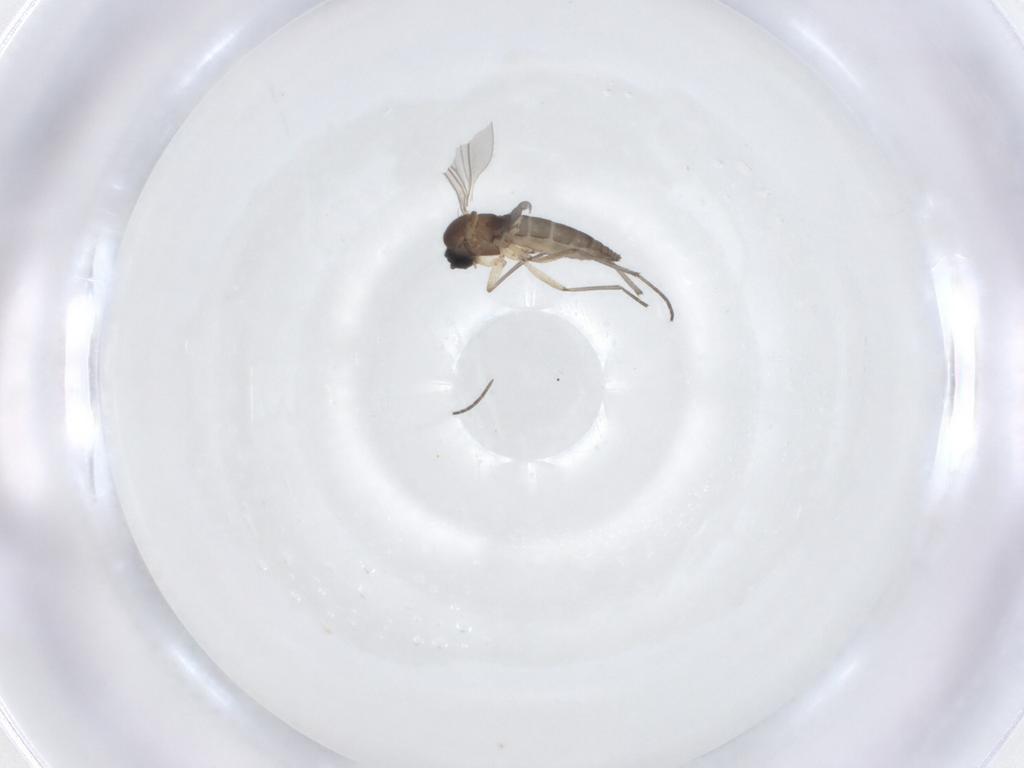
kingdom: Animalia
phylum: Arthropoda
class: Insecta
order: Diptera
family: Sciaridae
